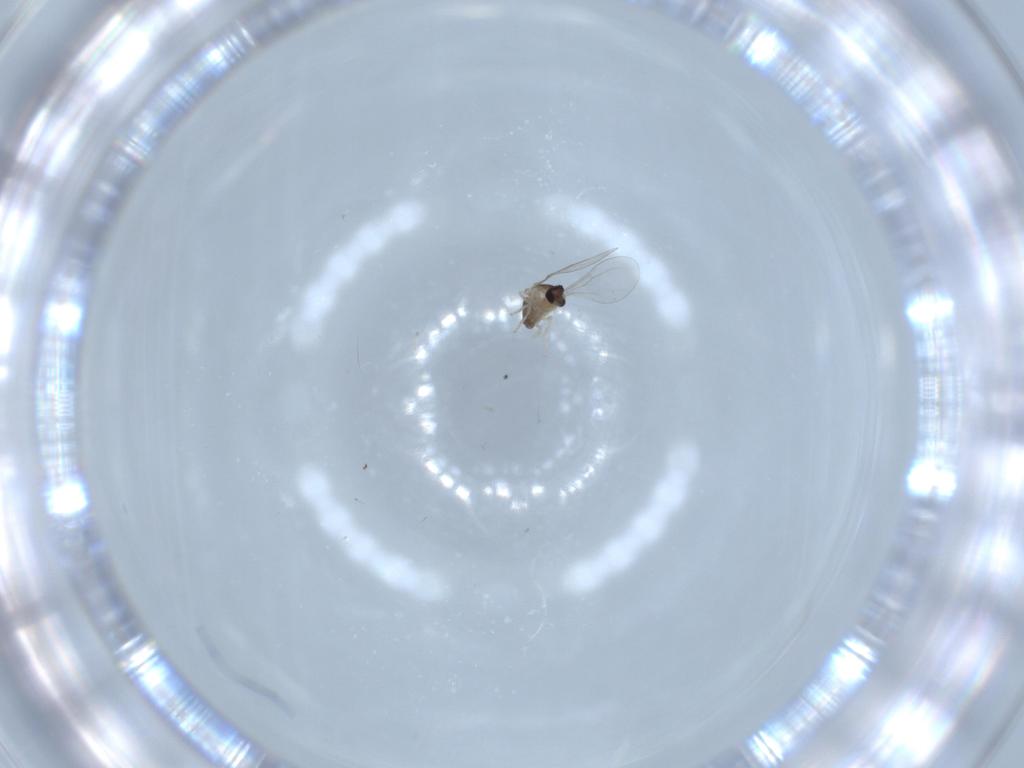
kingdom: Animalia
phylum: Arthropoda
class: Insecta
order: Diptera
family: Cecidomyiidae
